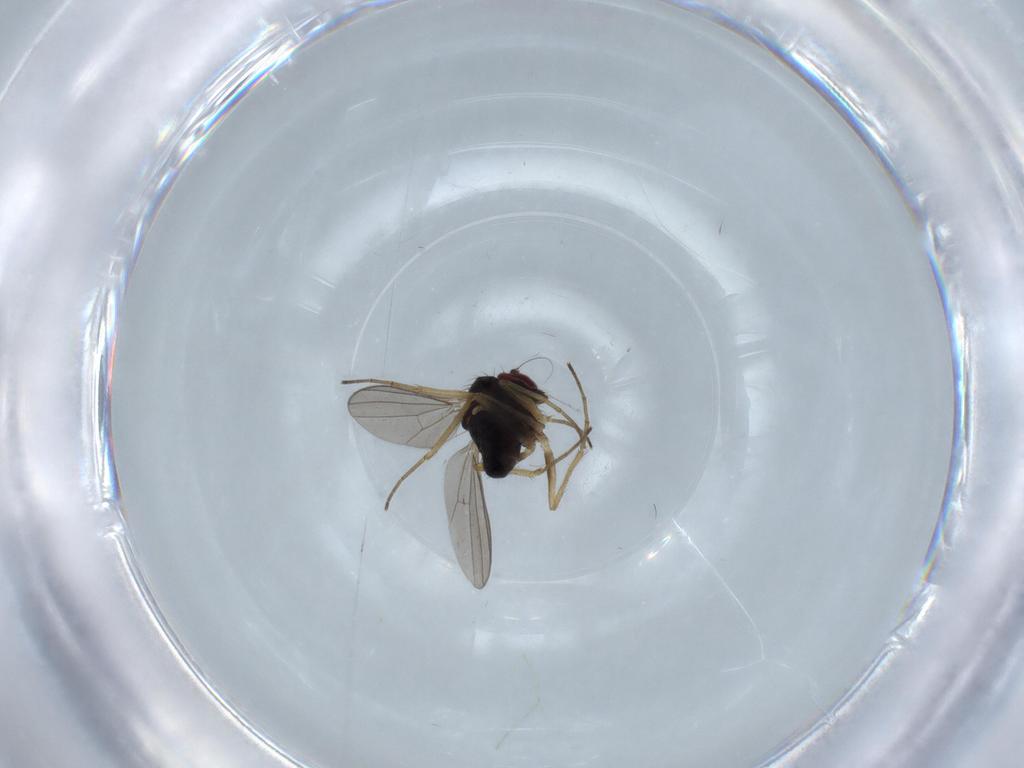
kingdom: Animalia
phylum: Arthropoda
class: Insecta
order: Diptera
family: Dolichopodidae
